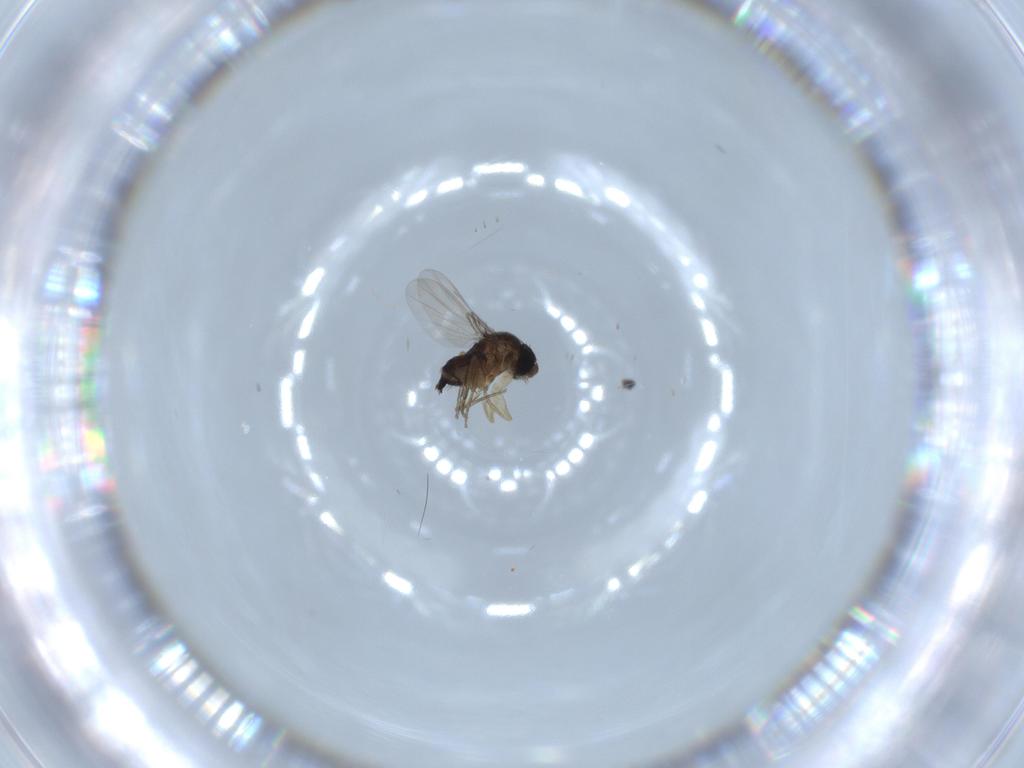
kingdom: Animalia
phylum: Arthropoda
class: Insecta
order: Diptera
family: Phoridae
